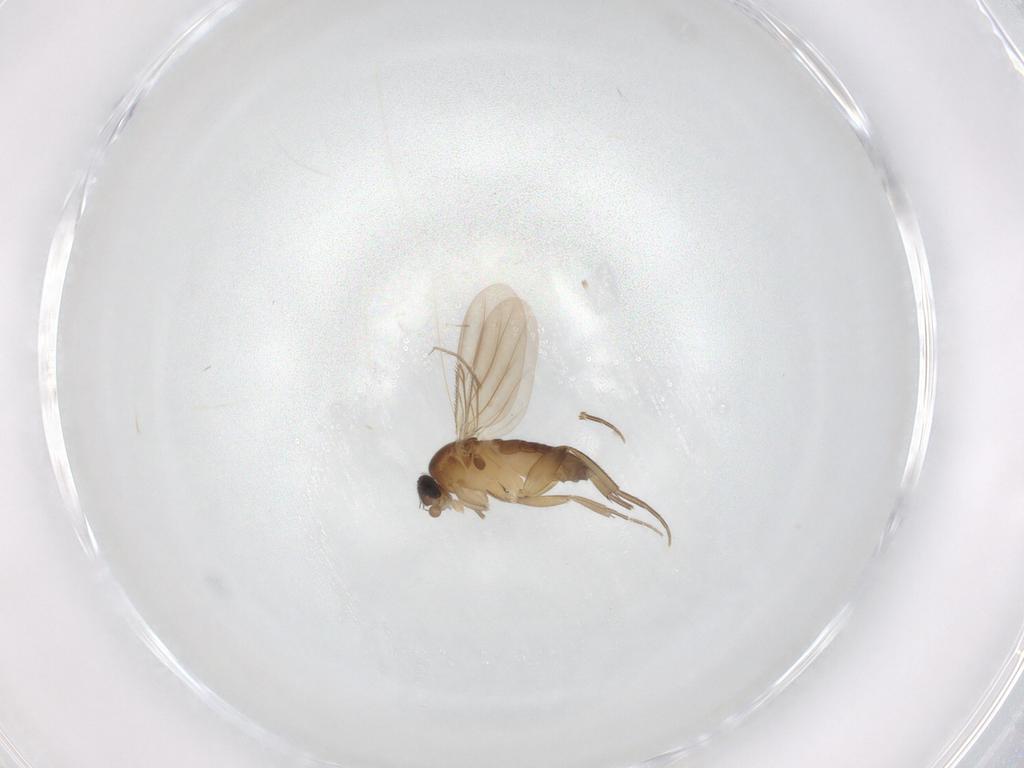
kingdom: Animalia
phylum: Arthropoda
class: Insecta
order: Diptera
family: Phoridae
